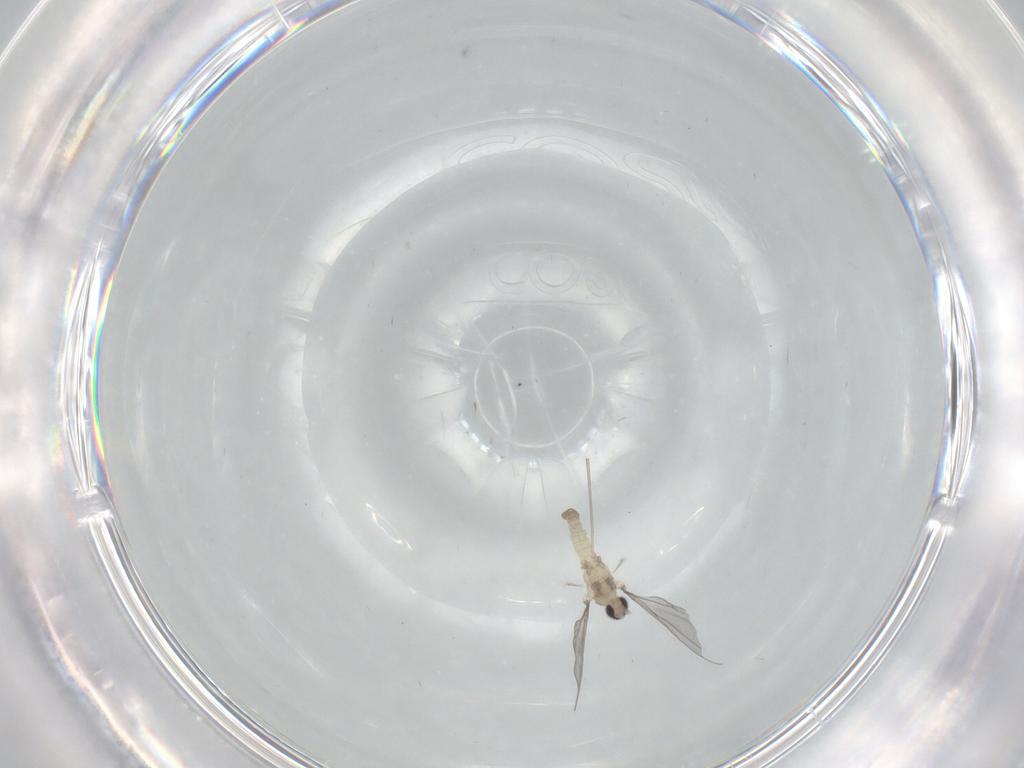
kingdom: Animalia
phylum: Arthropoda
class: Insecta
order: Diptera
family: Cecidomyiidae
